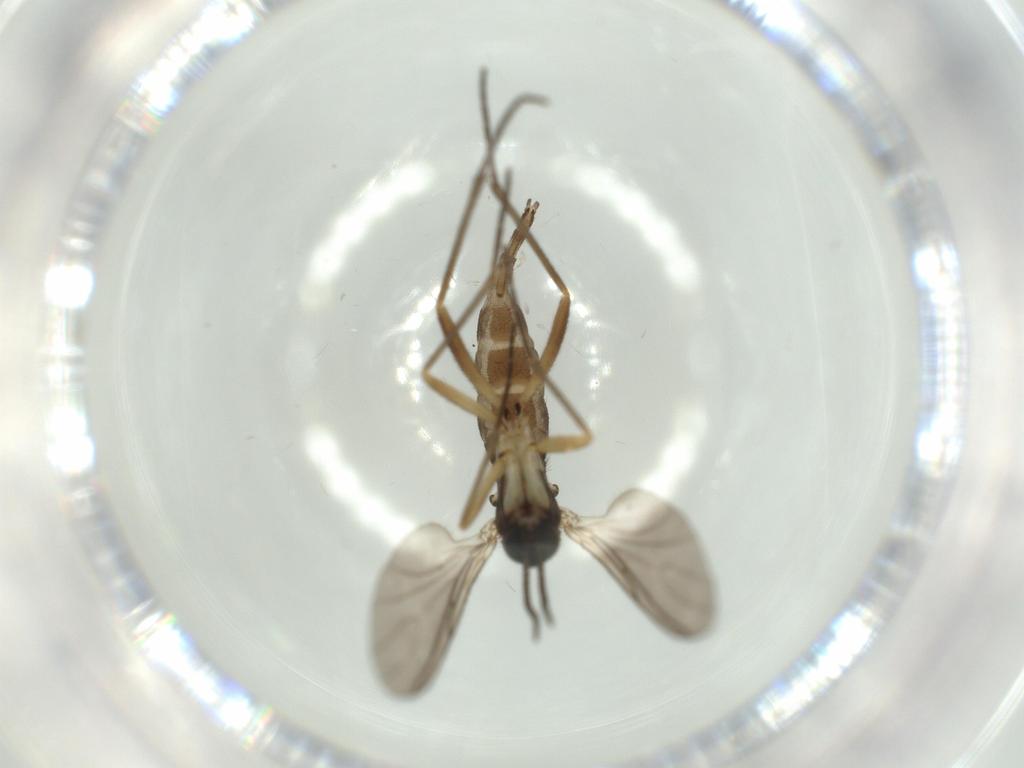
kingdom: Animalia
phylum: Arthropoda
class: Insecta
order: Diptera
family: Sciaridae
